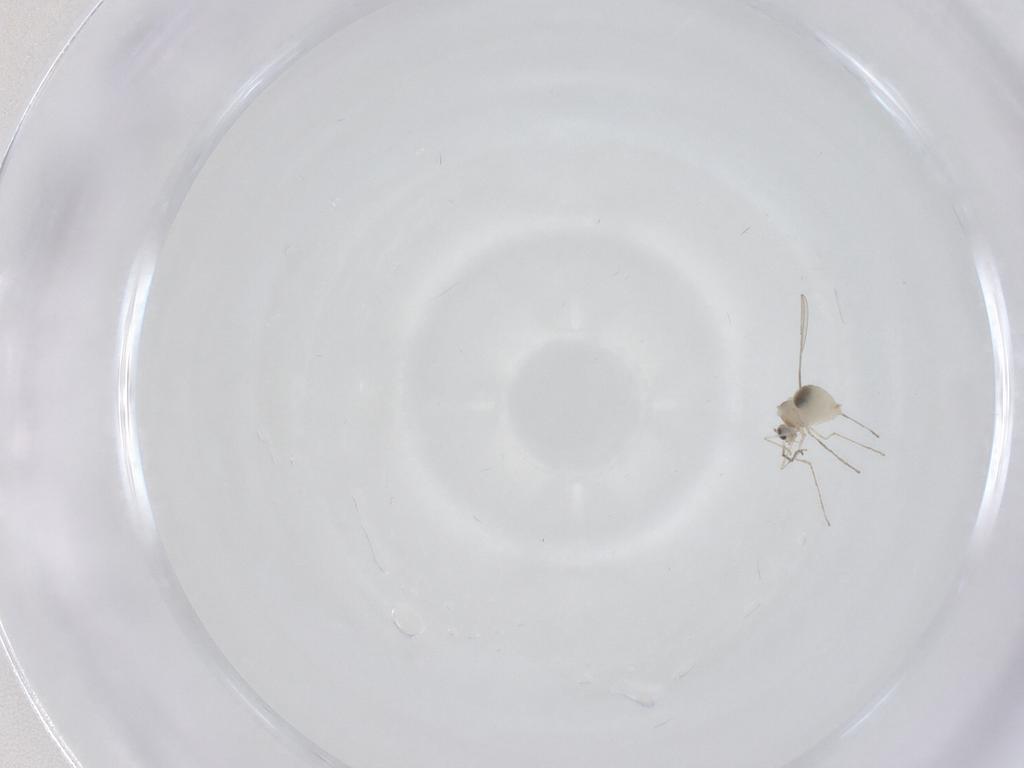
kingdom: Animalia
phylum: Arthropoda
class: Insecta
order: Diptera
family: Cecidomyiidae
